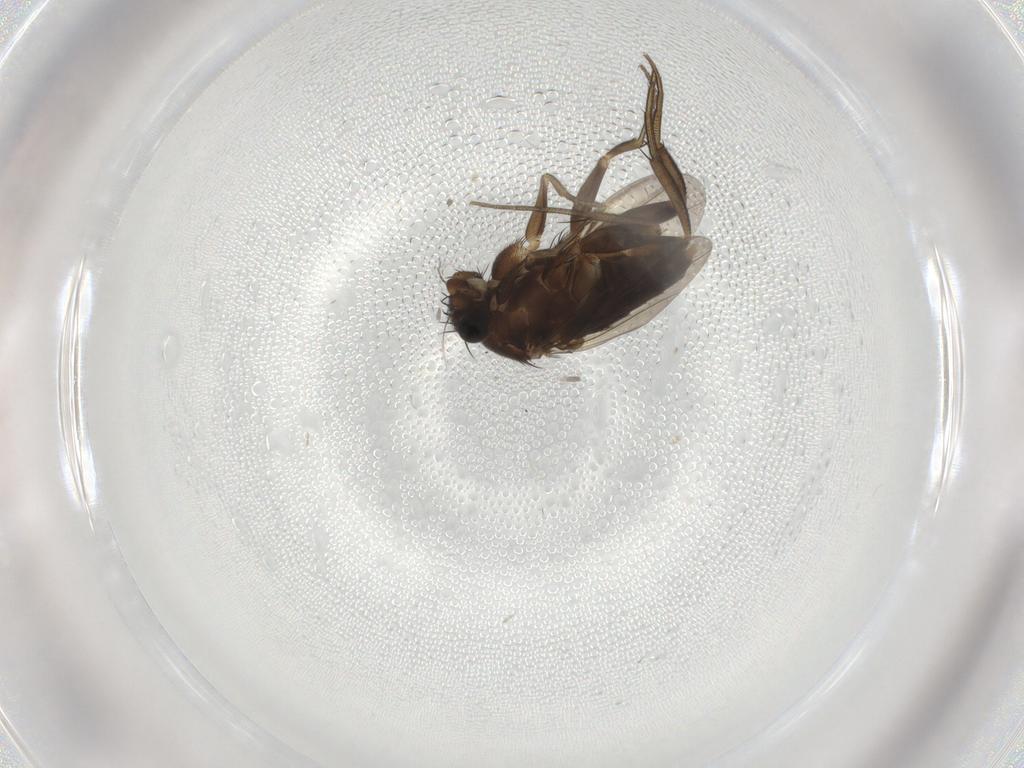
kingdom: Animalia
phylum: Arthropoda
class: Insecta
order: Diptera
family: Phoridae
